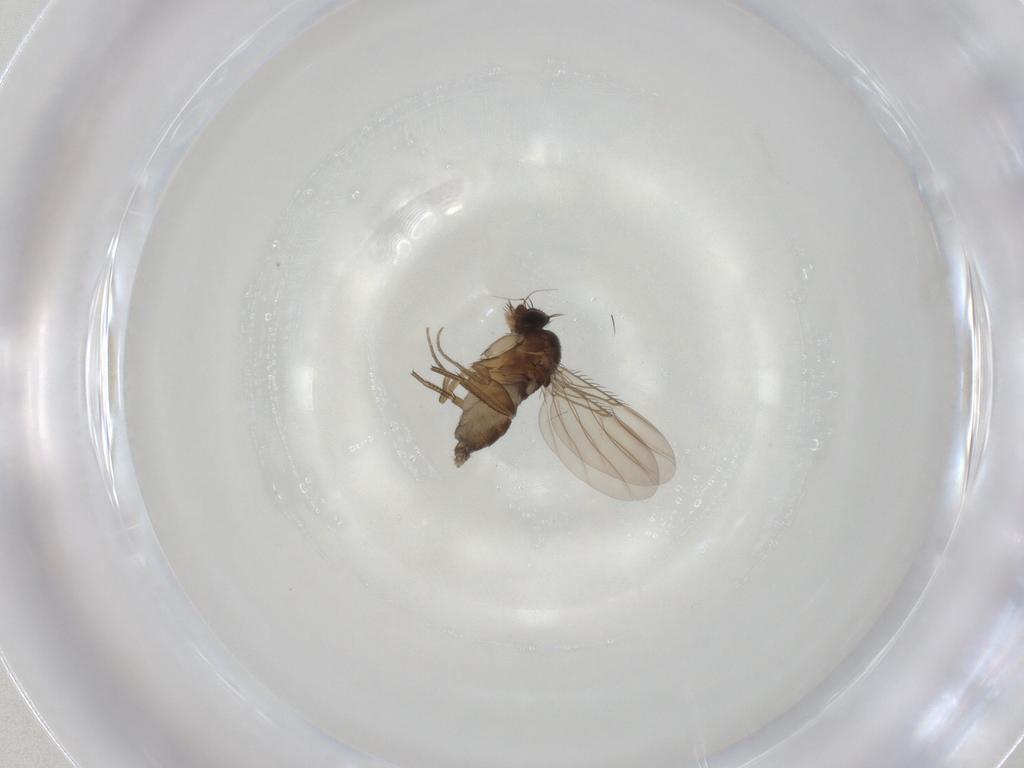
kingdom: Animalia
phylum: Arthropoda
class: Insecta
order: Diptera
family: Phoridae
